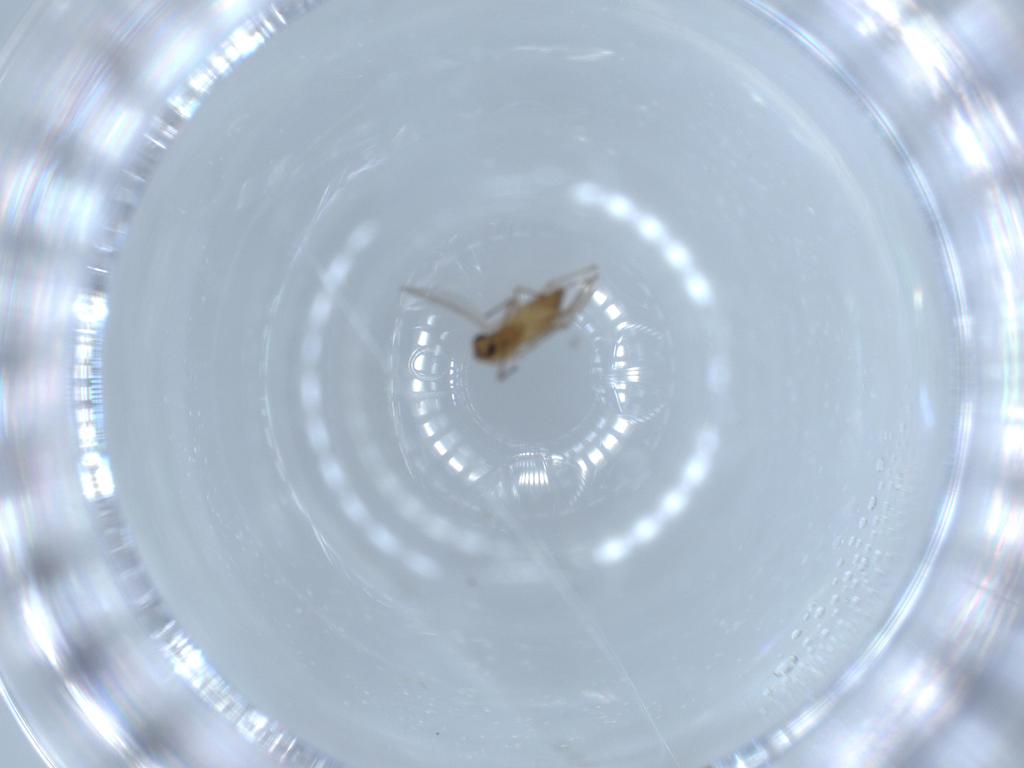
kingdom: Animalia
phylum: Arthropoda
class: Insecta
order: Diptera
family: Chironomidae
